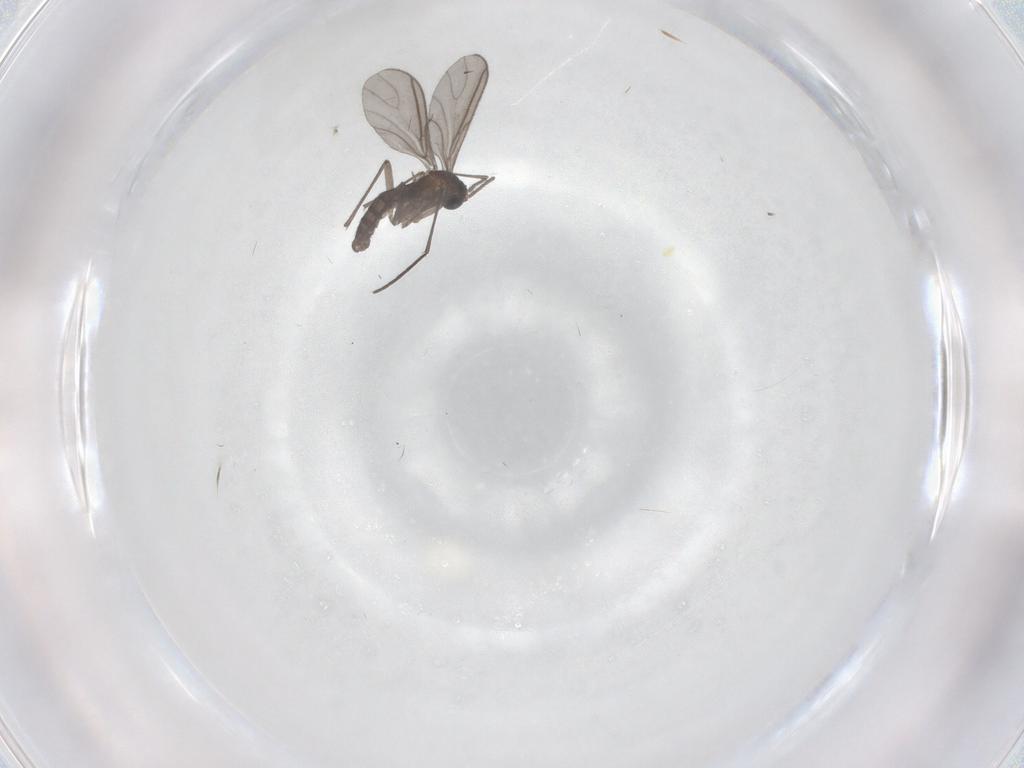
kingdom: Animalia
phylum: Arthropoda
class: Insecta
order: Diptera
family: Sciaridae
